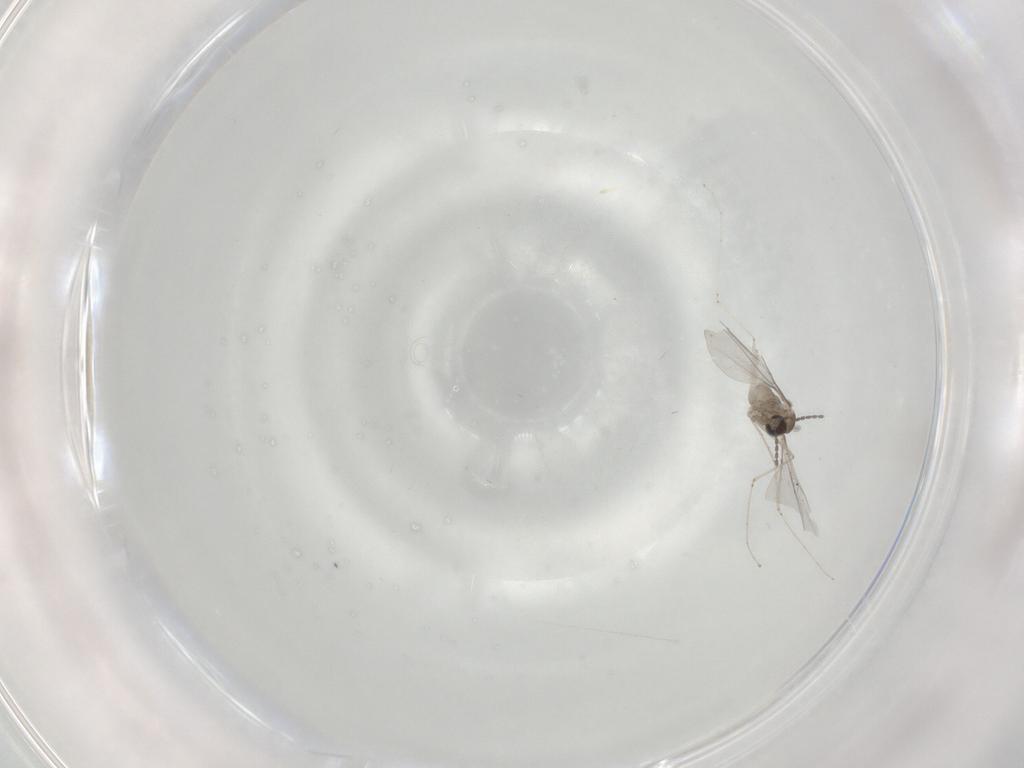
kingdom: Animalia
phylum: Arthropoda
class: Insecta
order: Diptera
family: Cecidomyiidae
